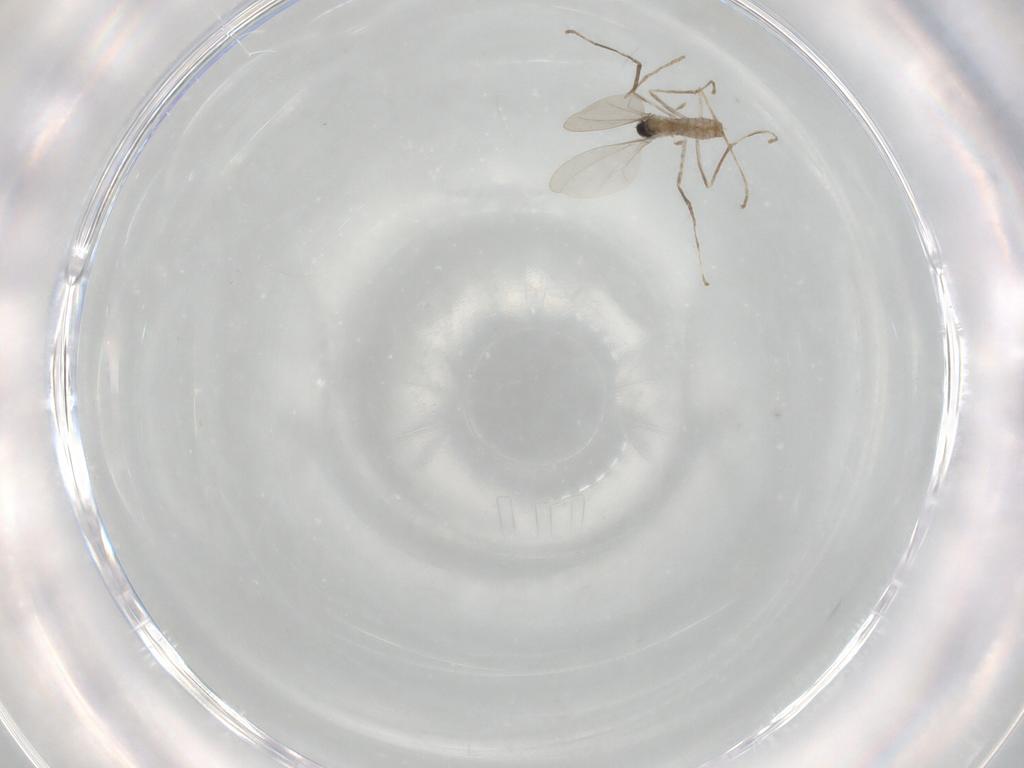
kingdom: Animalia
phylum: Arthropoda
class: Insecta
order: Diptera
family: Cecidomyiidae
